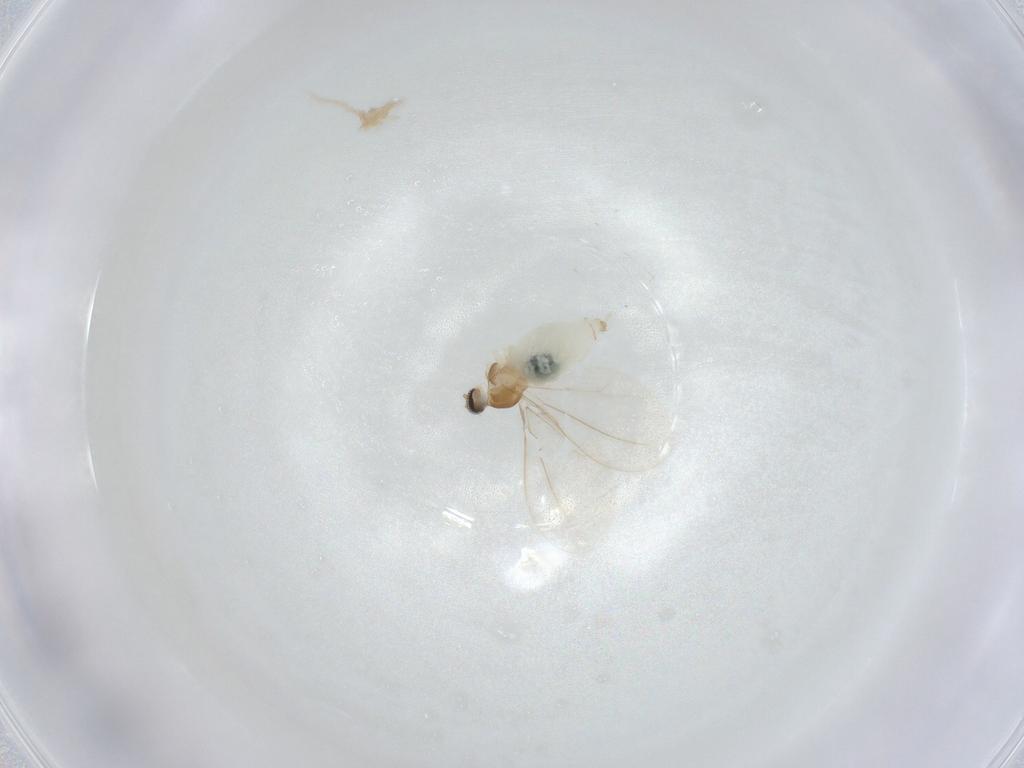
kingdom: Animalia
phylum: Arthropoda
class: Insecta
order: Diptera
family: Cecidomyiidae
